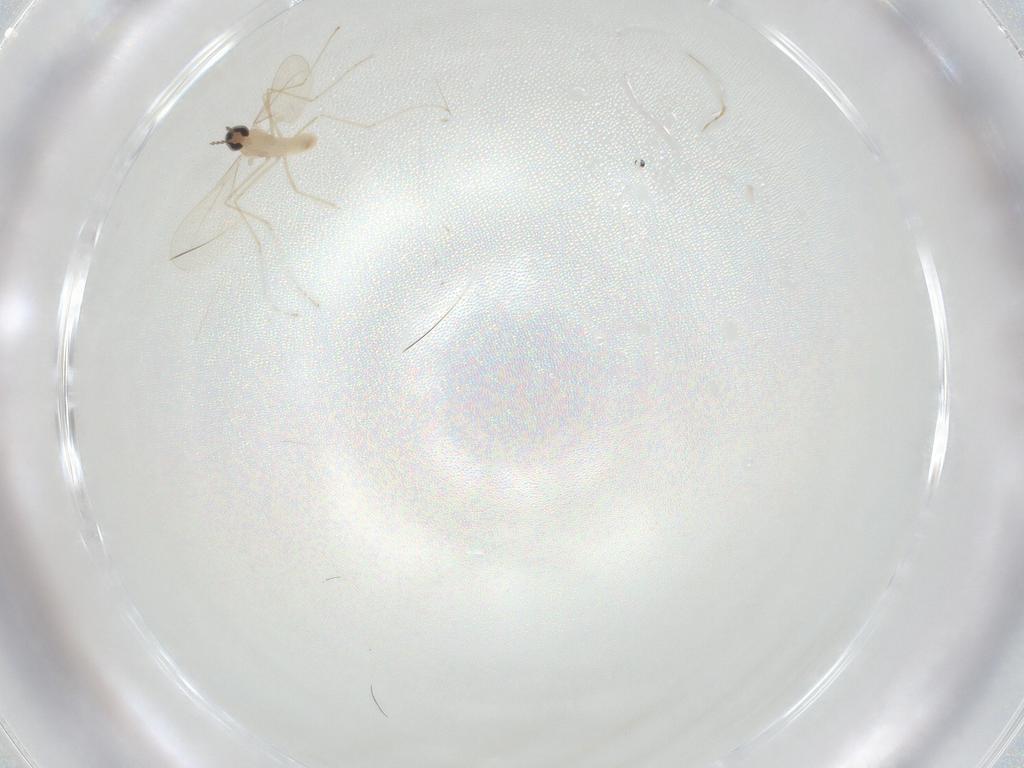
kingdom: Animalia
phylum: Arthropoda
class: Insecta
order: Diptera
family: Cecidomyiidae
